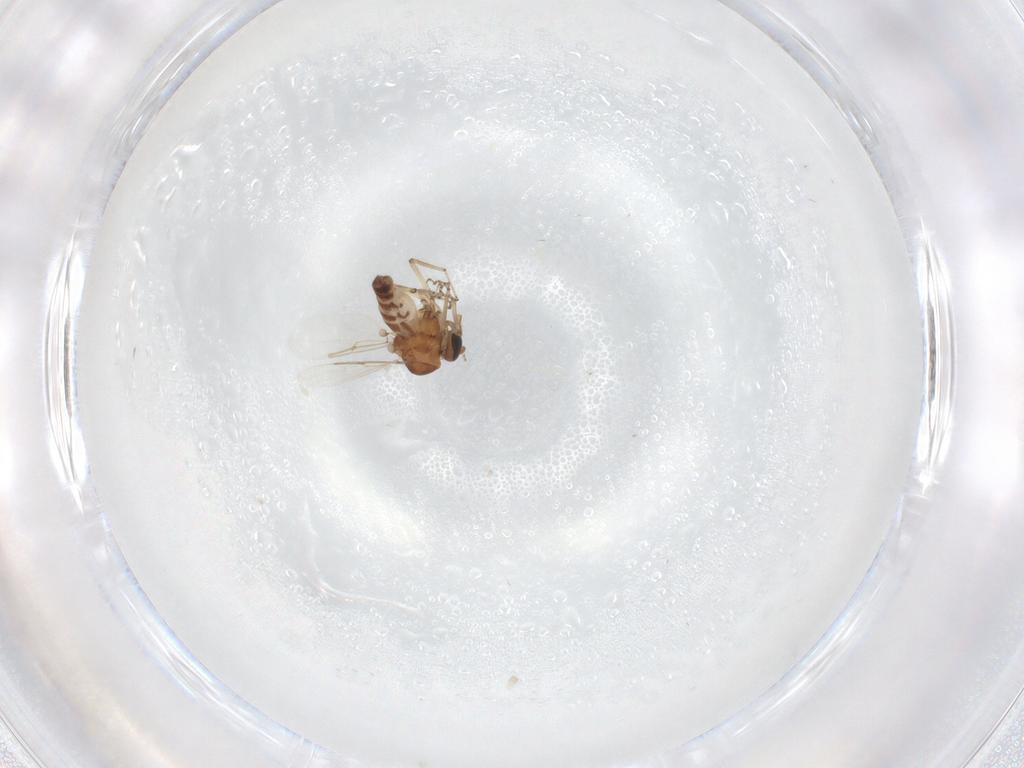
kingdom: Animalia
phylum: Arthropoda
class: Insecta
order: Diptera
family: Ceratopogonidae
